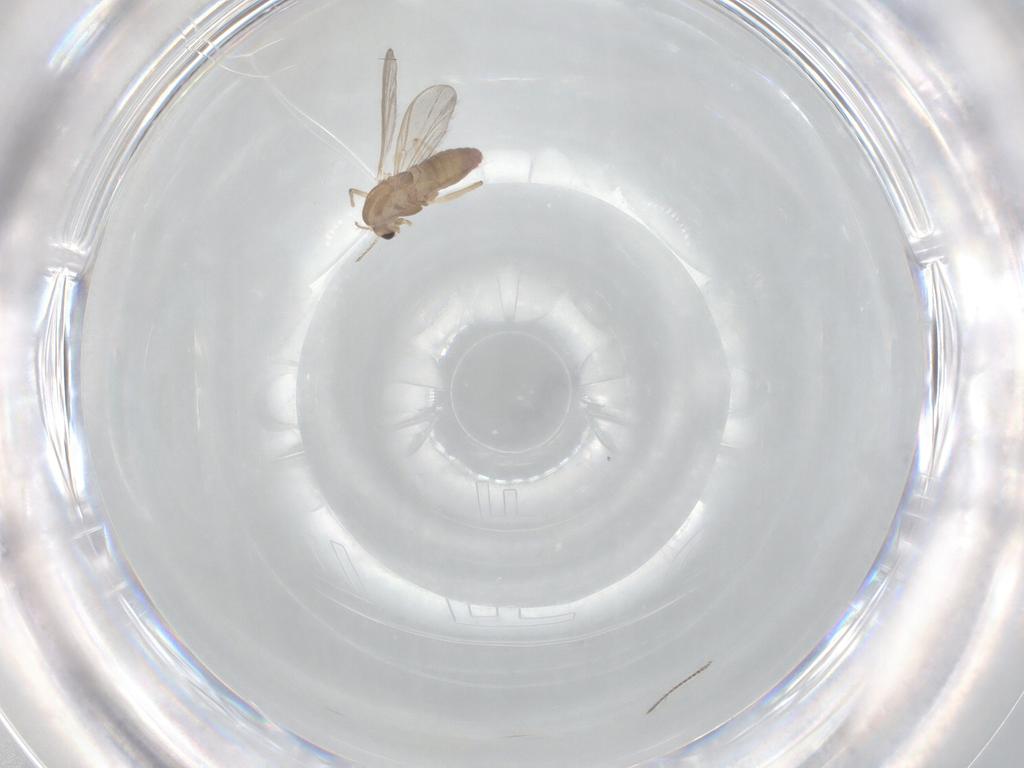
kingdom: Animalia
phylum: Arthropoda
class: Insecta
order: Diptera
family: Chironomidae
